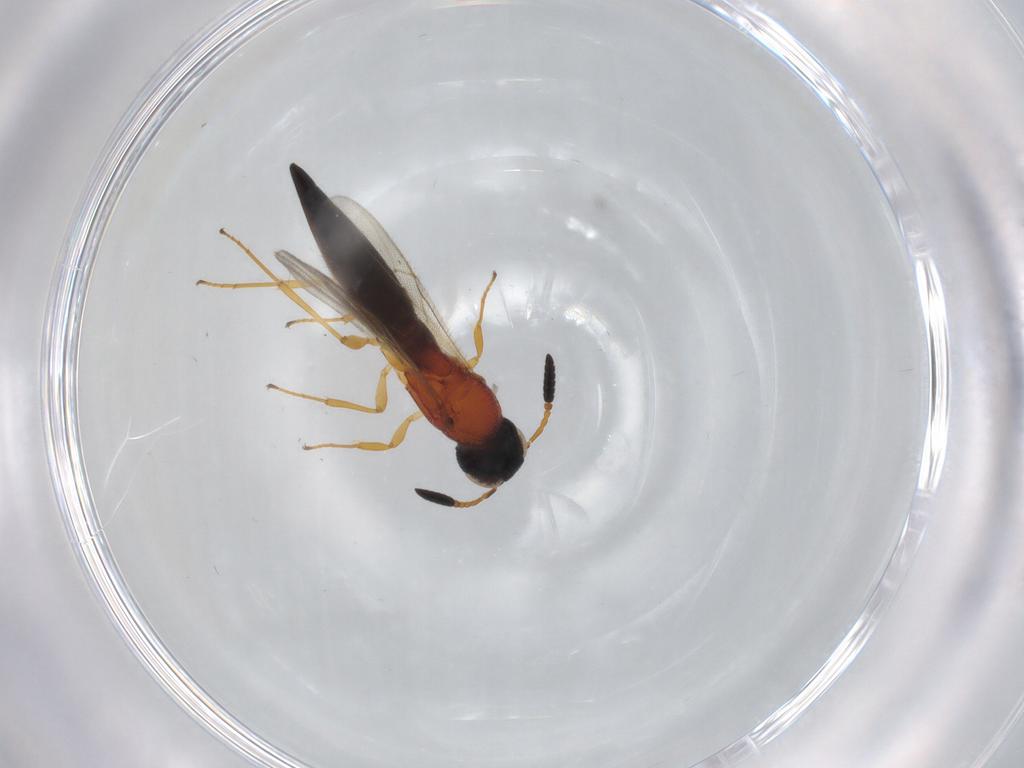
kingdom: Animalia
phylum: Arthropoda
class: Insecta
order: Hymenoptera
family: Scelionidae
